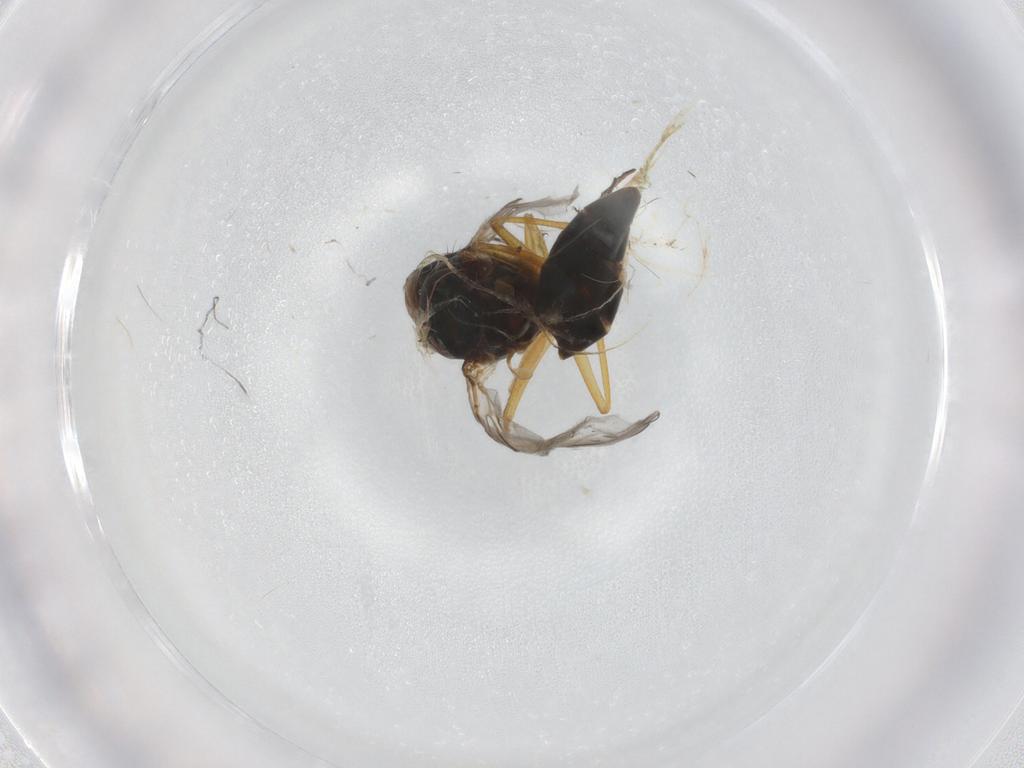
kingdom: Animalia
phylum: Arthropoda
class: Insecta
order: Diptera
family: Ephydridae
